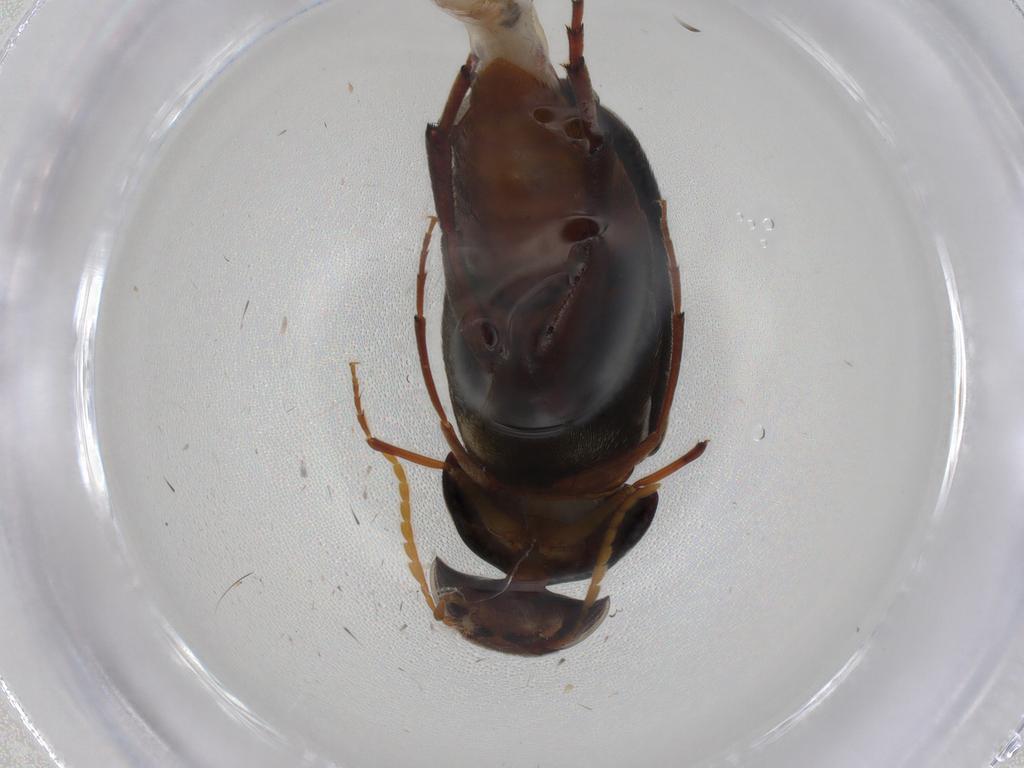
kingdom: Animalia
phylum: Arthropoda
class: Insecta
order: Coleoptera
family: Mordellidae
